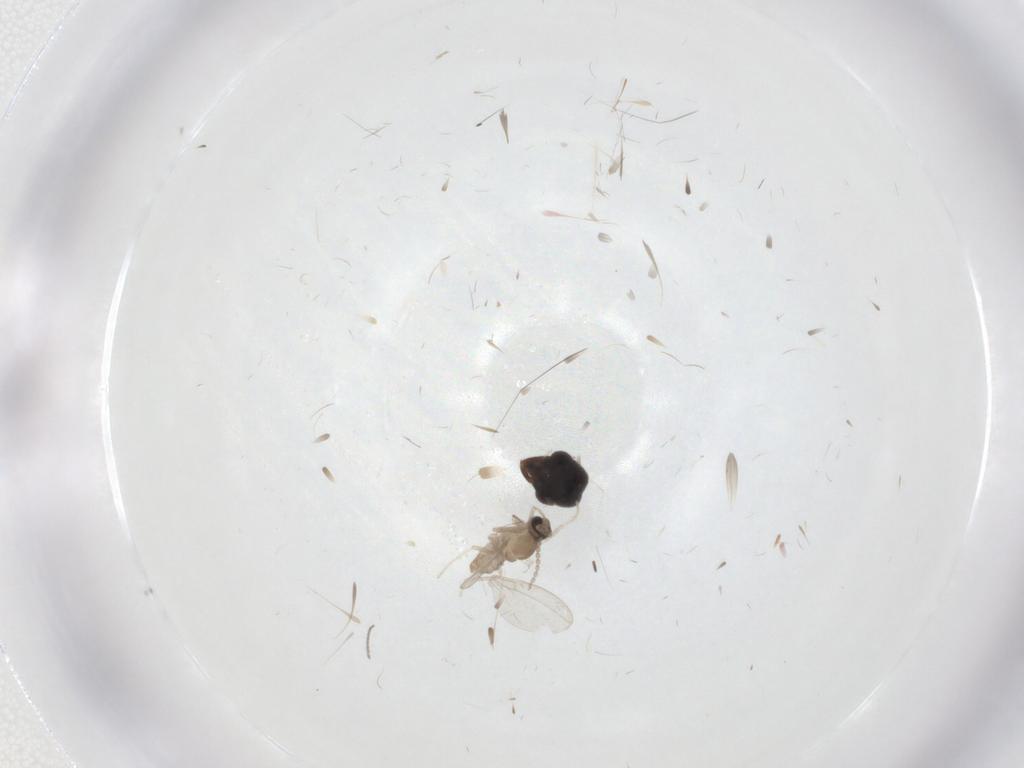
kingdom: Animalia
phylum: Arthropoda
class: Insecta
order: Diptera
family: Cecidomyiidae
